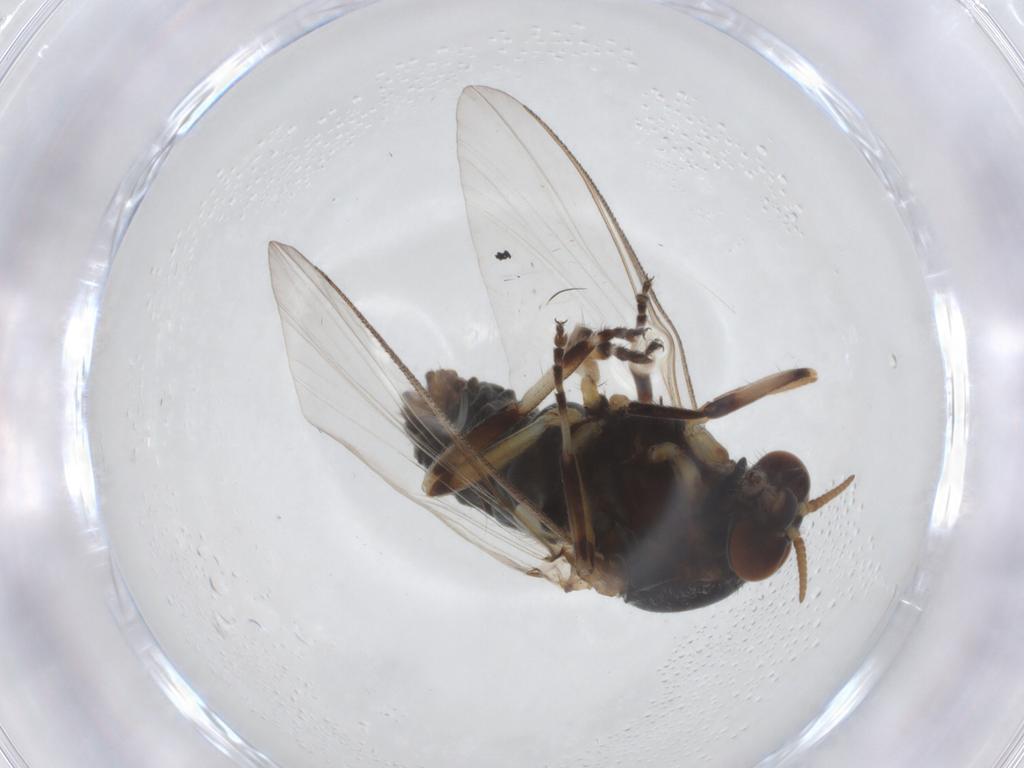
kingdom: Animalia
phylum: Arthropoda
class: Insecta
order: Diptera
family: Simuliidae
